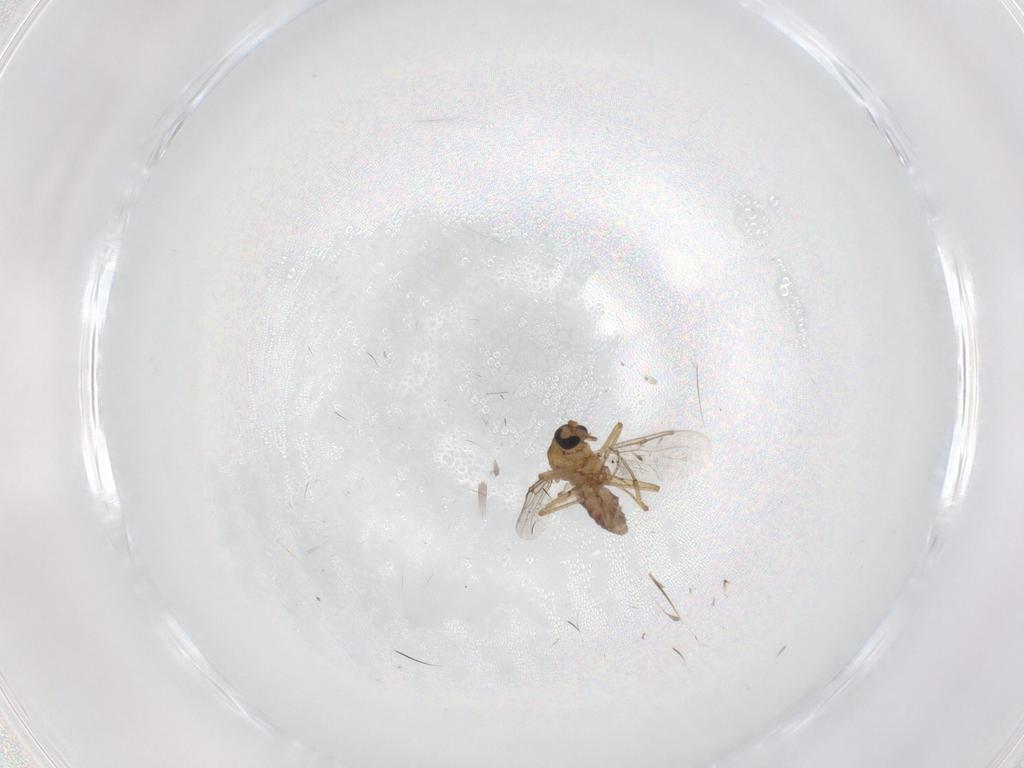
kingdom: Animalia
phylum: Arthropoda
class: Insecta
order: Diptera
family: Sciaridae
